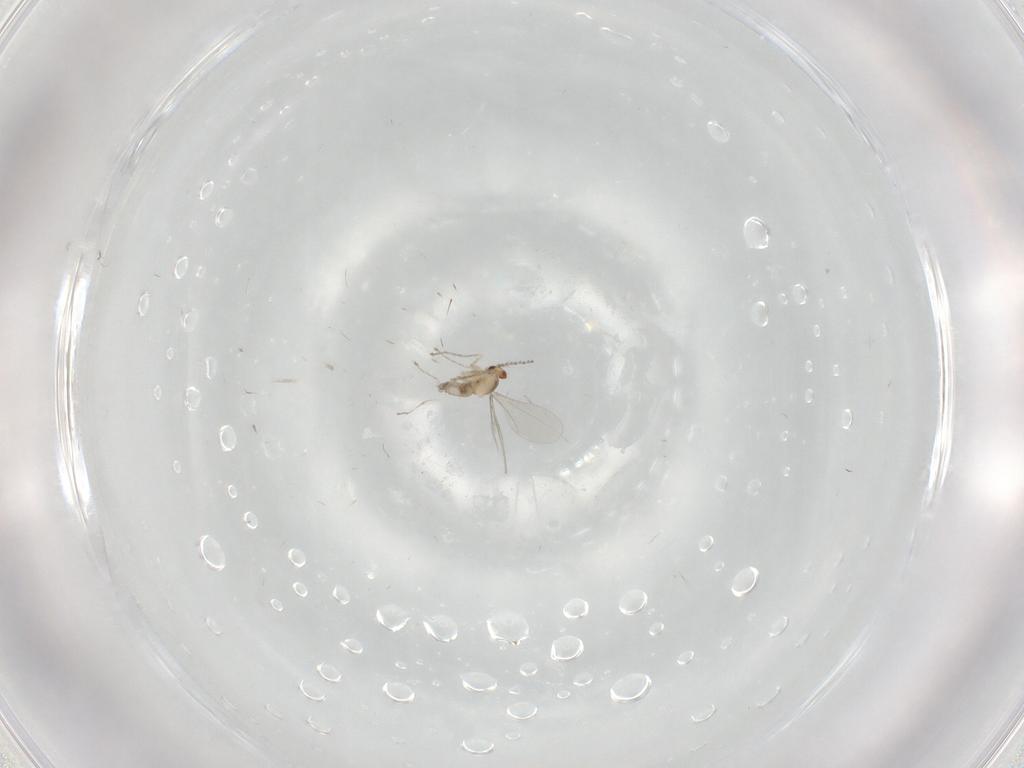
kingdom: Animalia
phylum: Arthropoda
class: Insecta
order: Diptera
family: Cecidomyiidae
